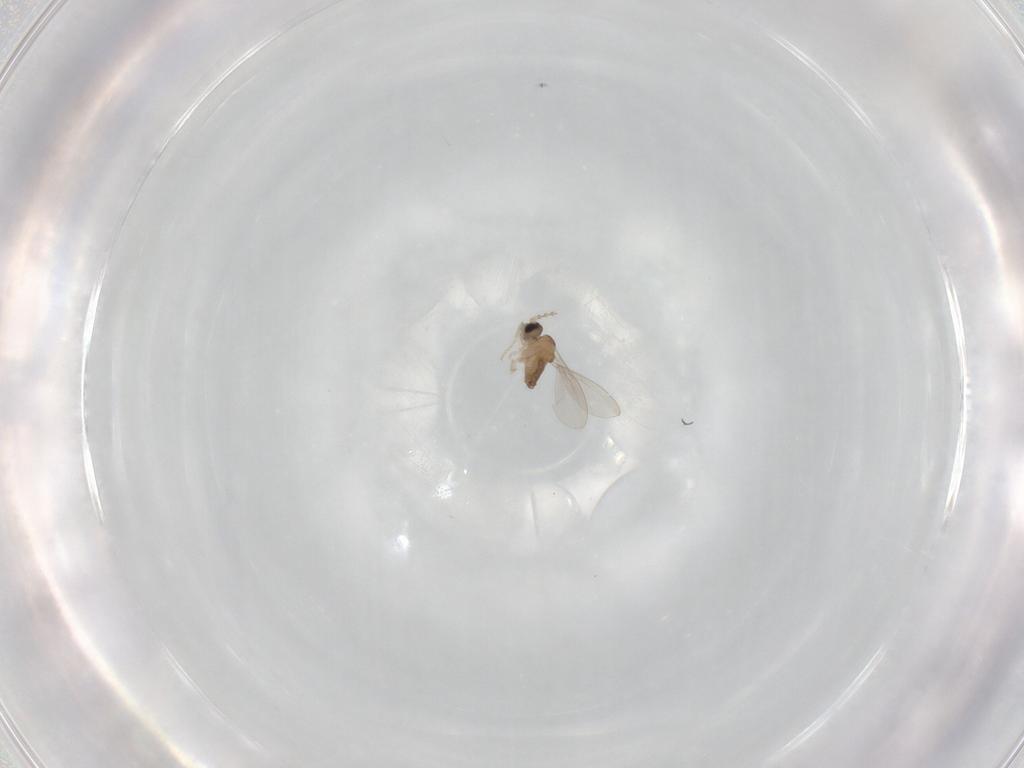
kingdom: Animalia
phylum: Arthropoda
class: Insecta
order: Diptera
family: Cecidomyiidae
